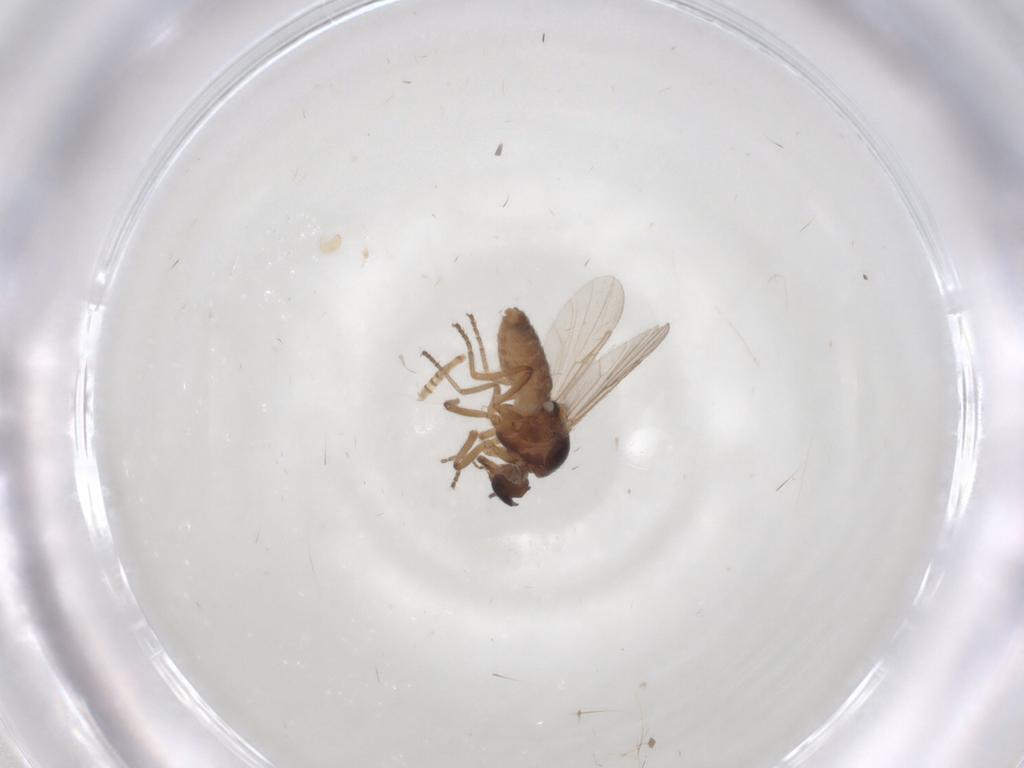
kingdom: Animalia
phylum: Arthropoda
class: Insecta
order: Diptera
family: Ceratopogonidae
